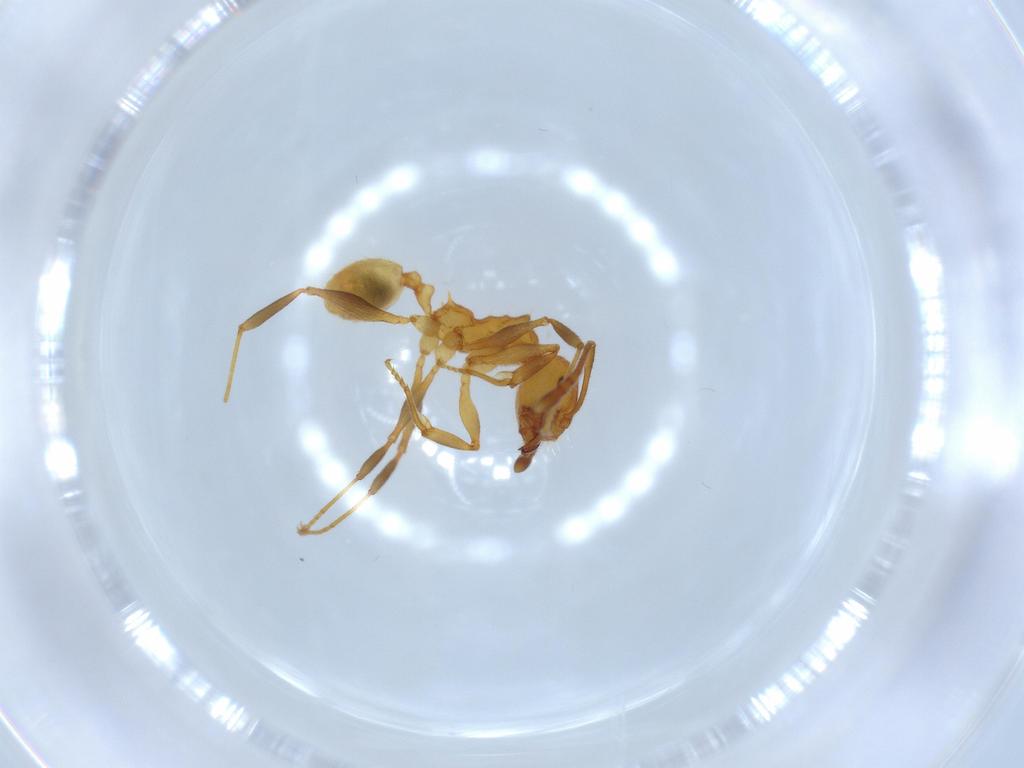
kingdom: Animalia
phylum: Arthropoda
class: Insecta
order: Hymenoptera
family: Formicidae
